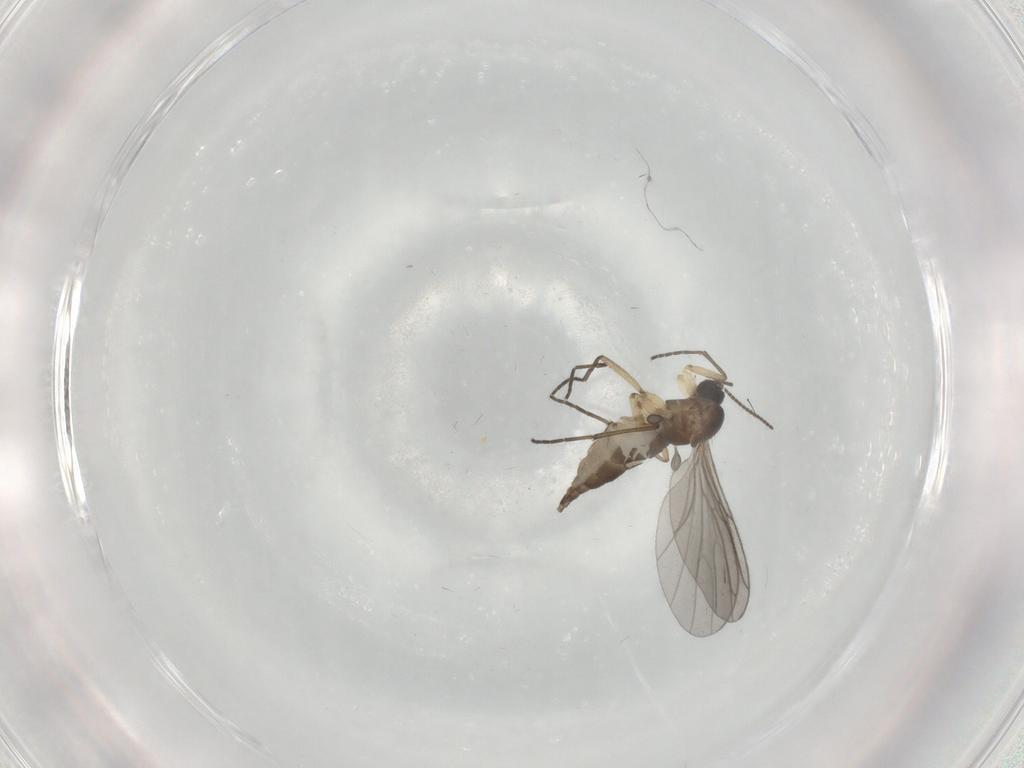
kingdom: Animalia
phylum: Arthropoda
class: Insecta
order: Diptera
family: Sciaridae
